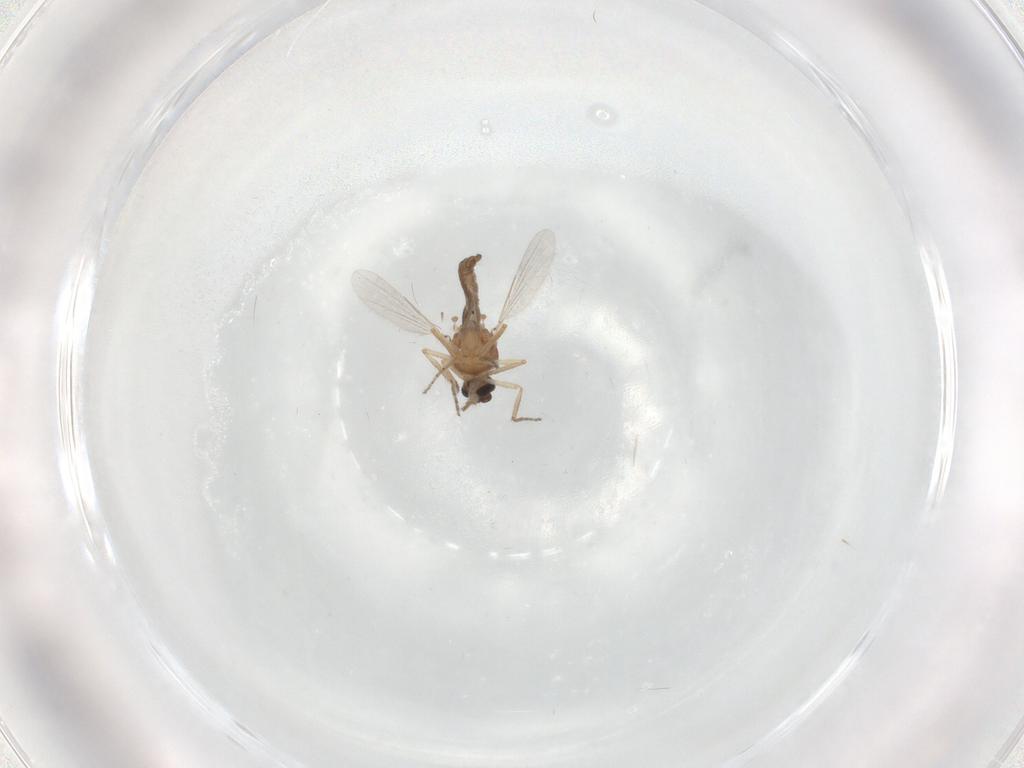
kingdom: Animalia
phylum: Arthropoda
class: Insecta
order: Diptera
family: Ceratopogonidae
